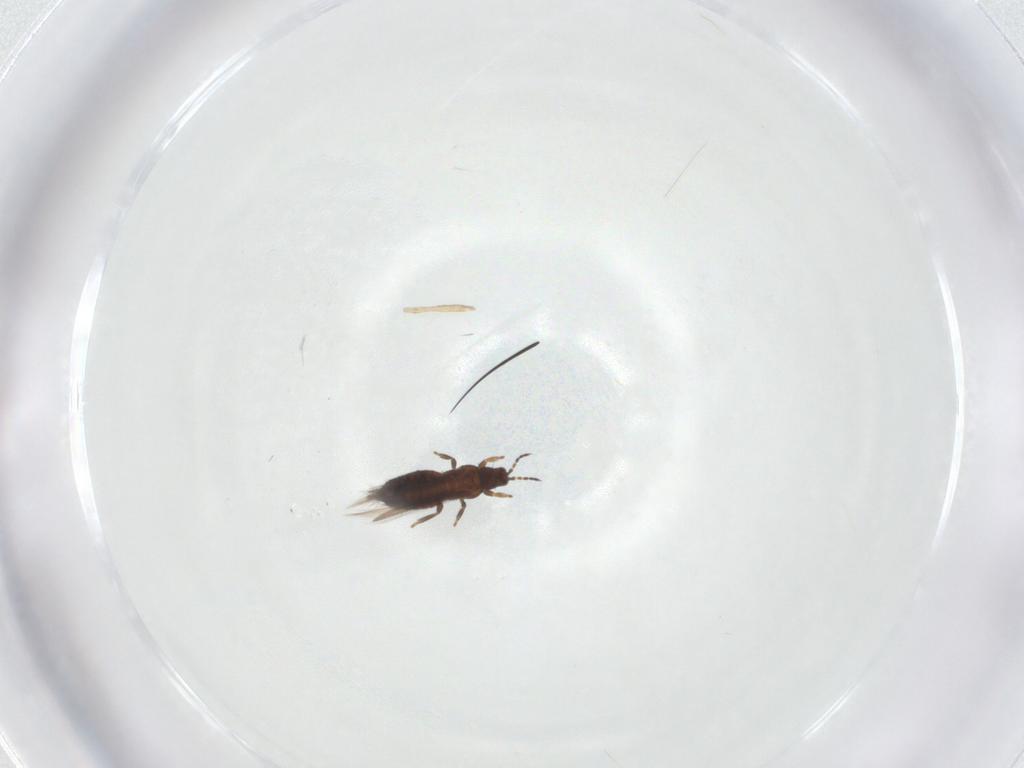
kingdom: Animalia
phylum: Arthropoda
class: Insecta
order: Thysanoptera
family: Thripidae
